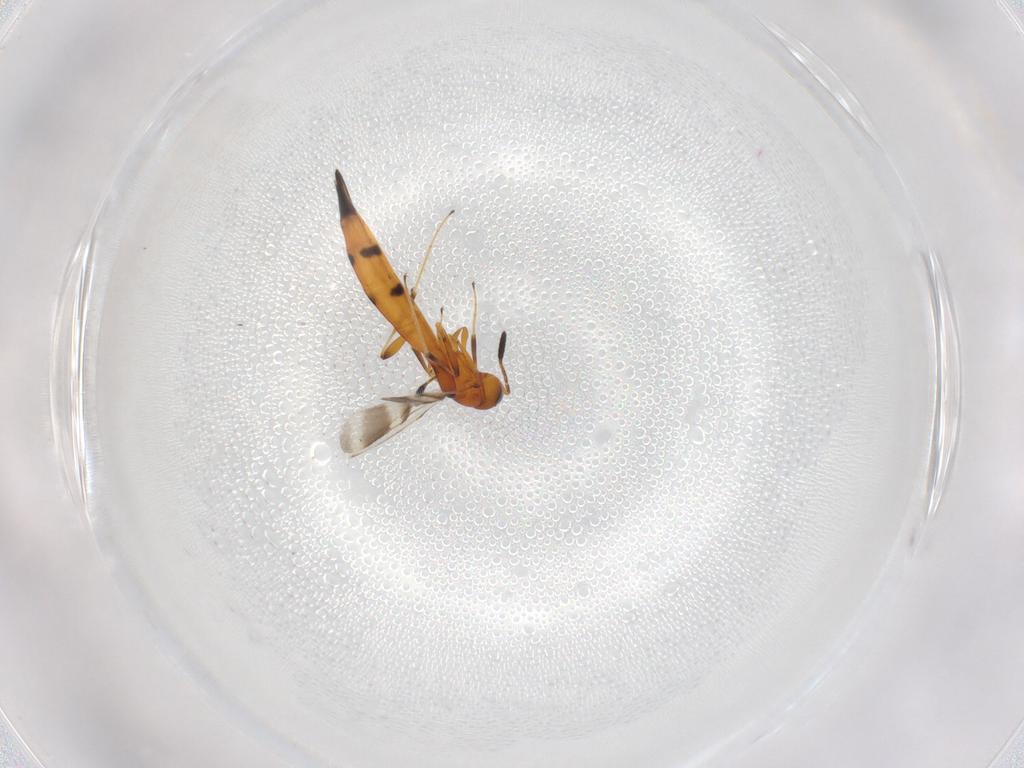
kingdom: Animalia
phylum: Arthropoda
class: Insecta
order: Hymenoptera
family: Scelionidae
